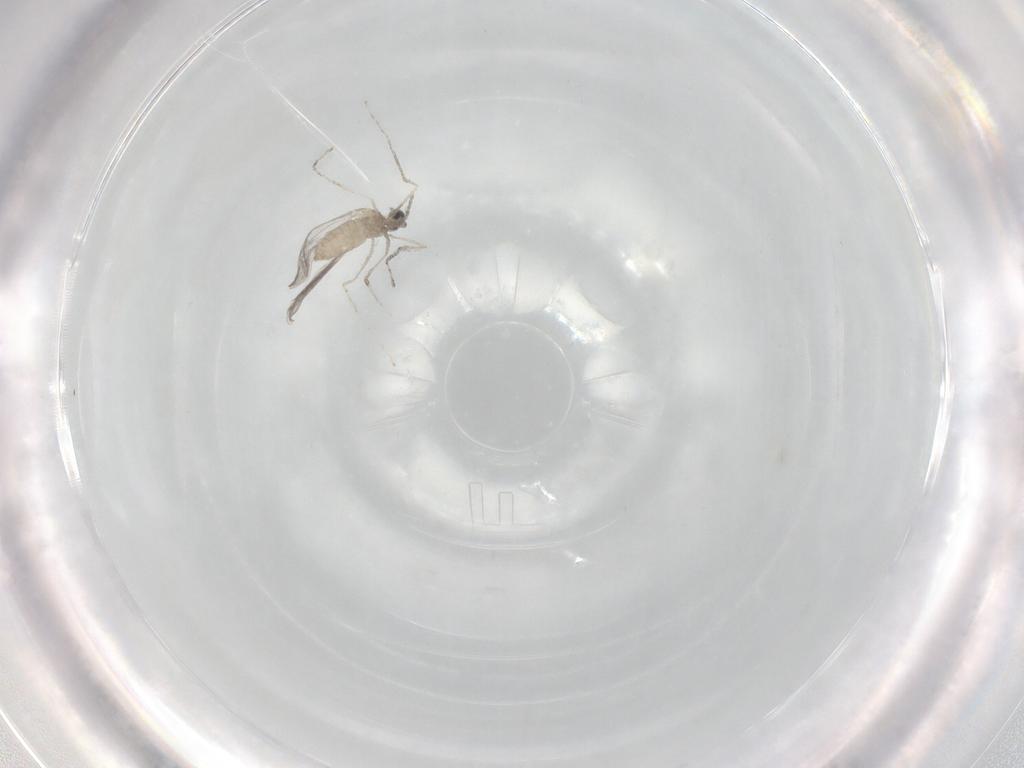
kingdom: Animalia
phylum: Arthropoda
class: Insecta
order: Diptera
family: Cecidomyiidae
